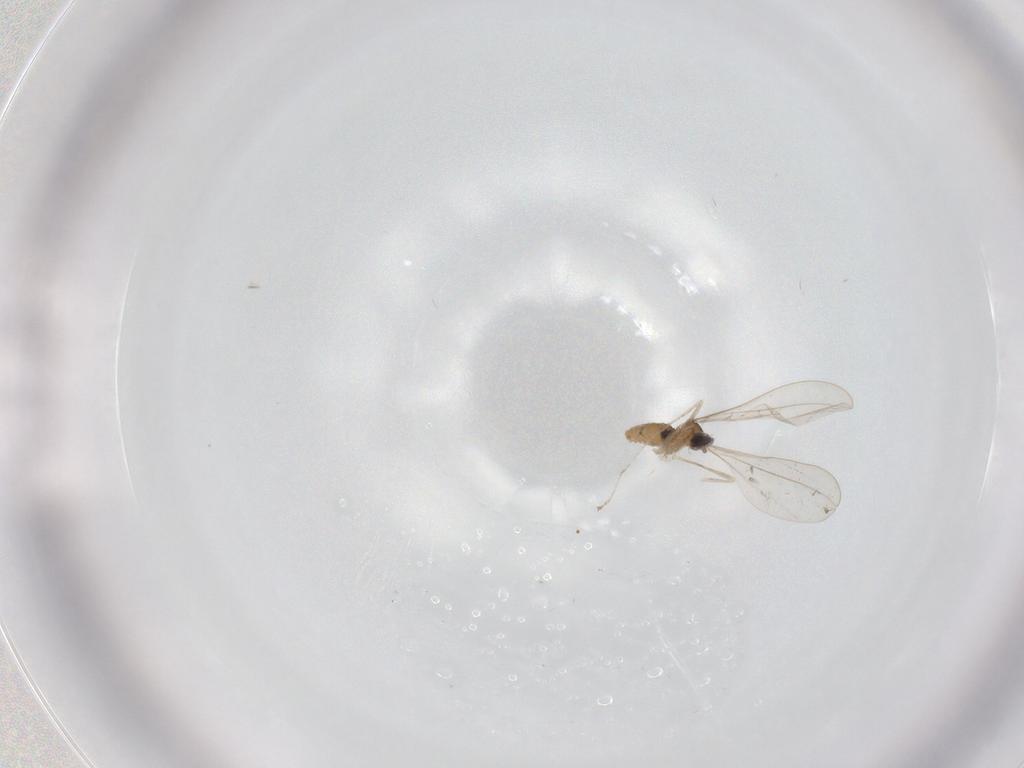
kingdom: Animalia
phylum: Arthropoda
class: Insecta
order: Diptera
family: Cecidomyiidae
